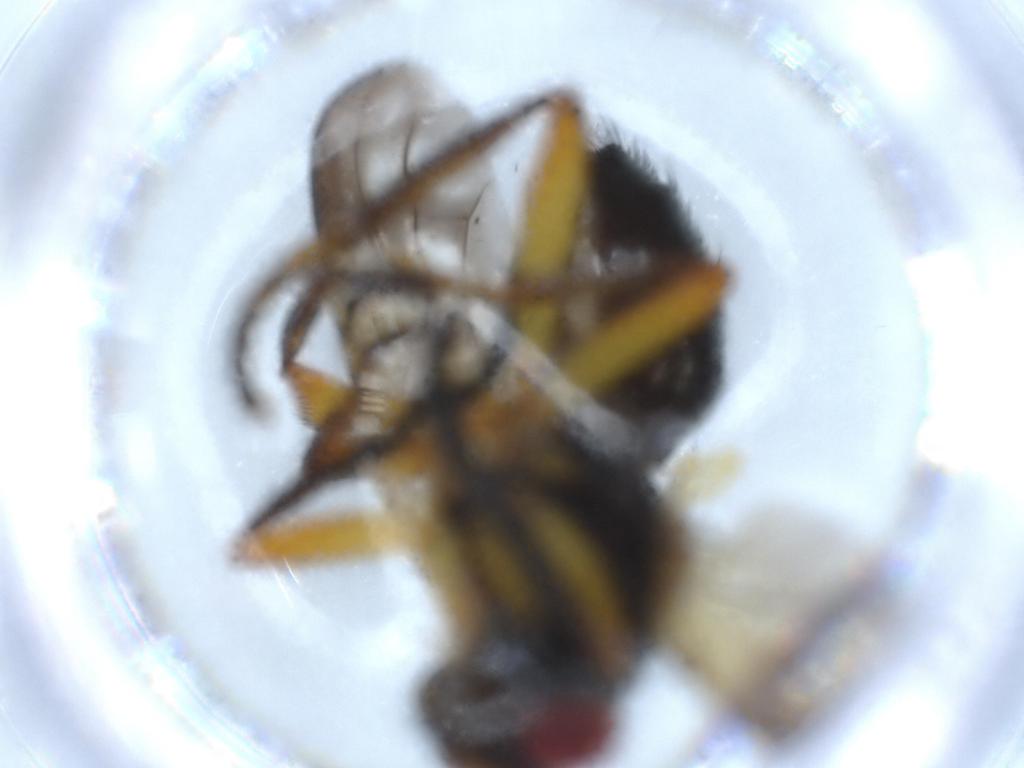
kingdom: Animalia
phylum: Arthropoda
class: Insecta
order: Diptera
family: Calliphoridae
